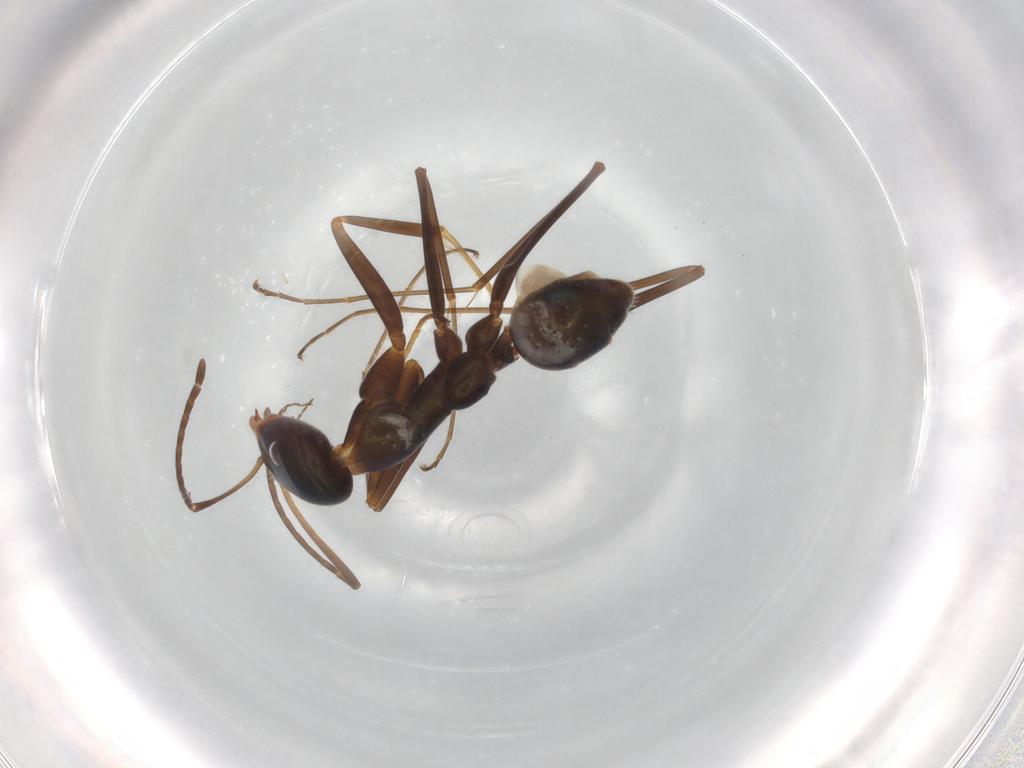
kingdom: Animalia
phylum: Arthropoda
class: Insecta
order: Hymenoptera
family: Formicidae
